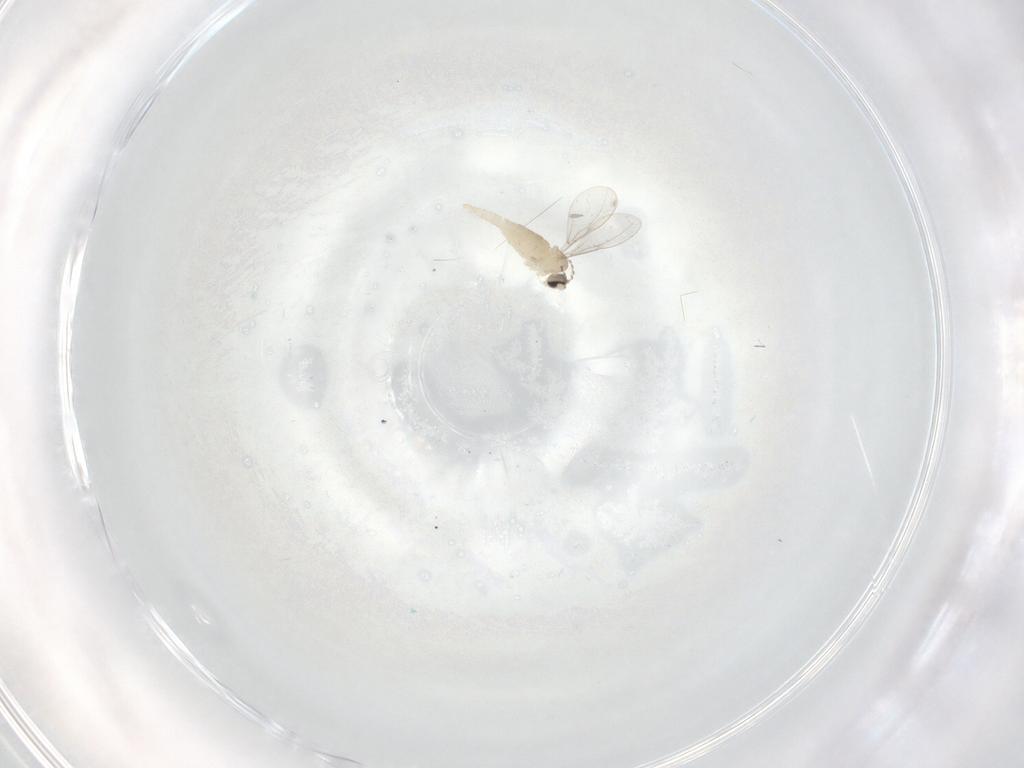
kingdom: Animalia
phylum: Arthropoda
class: Insecta
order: Diptera
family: Cecidomyiidae
